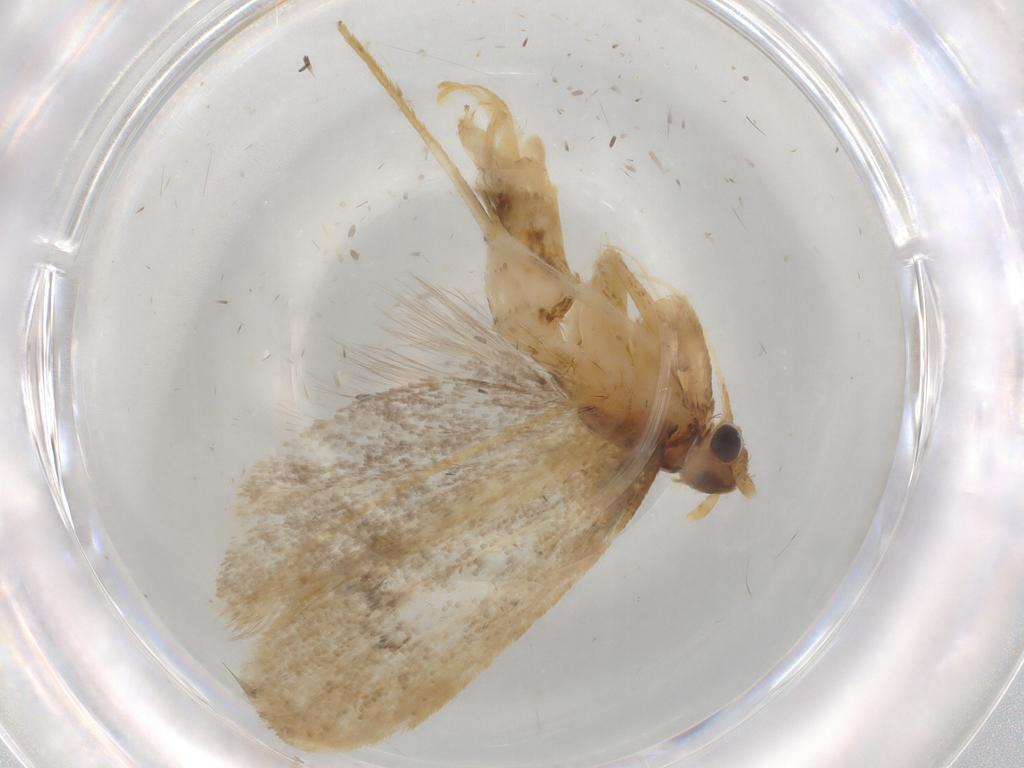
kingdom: Animalia
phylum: Arthropoda
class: Insecta
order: Lepidoptera
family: Lecithoceridae
